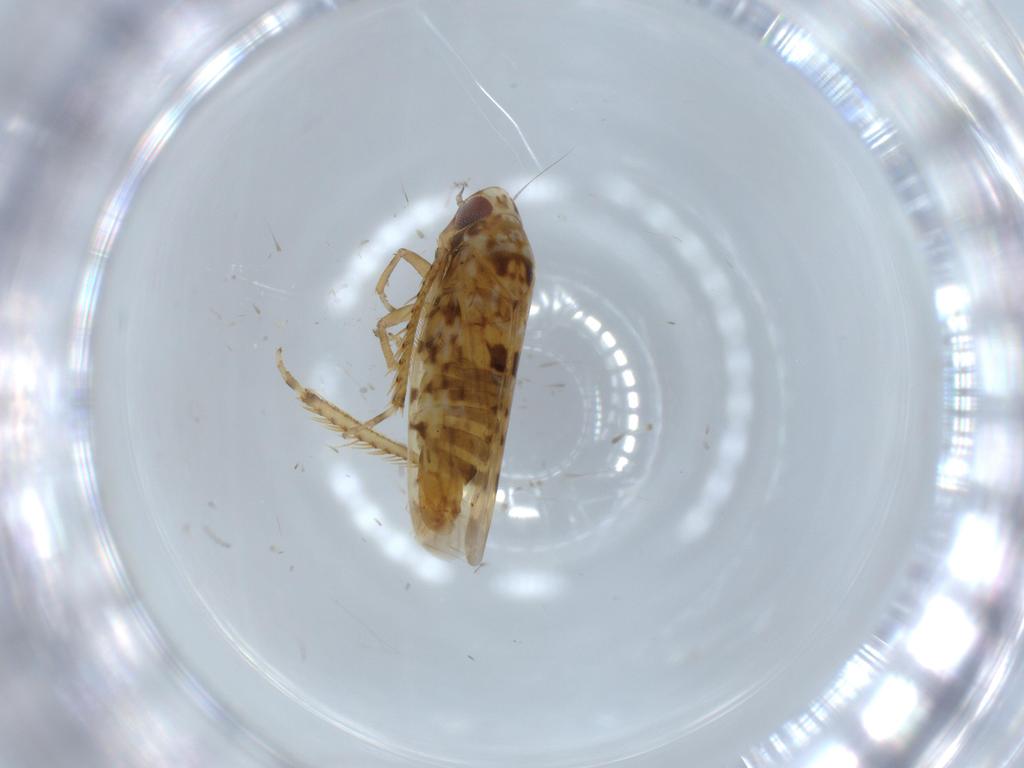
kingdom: Animalia
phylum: Arthropoda
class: Insecta
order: Hemiptera
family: Cicadellidae
